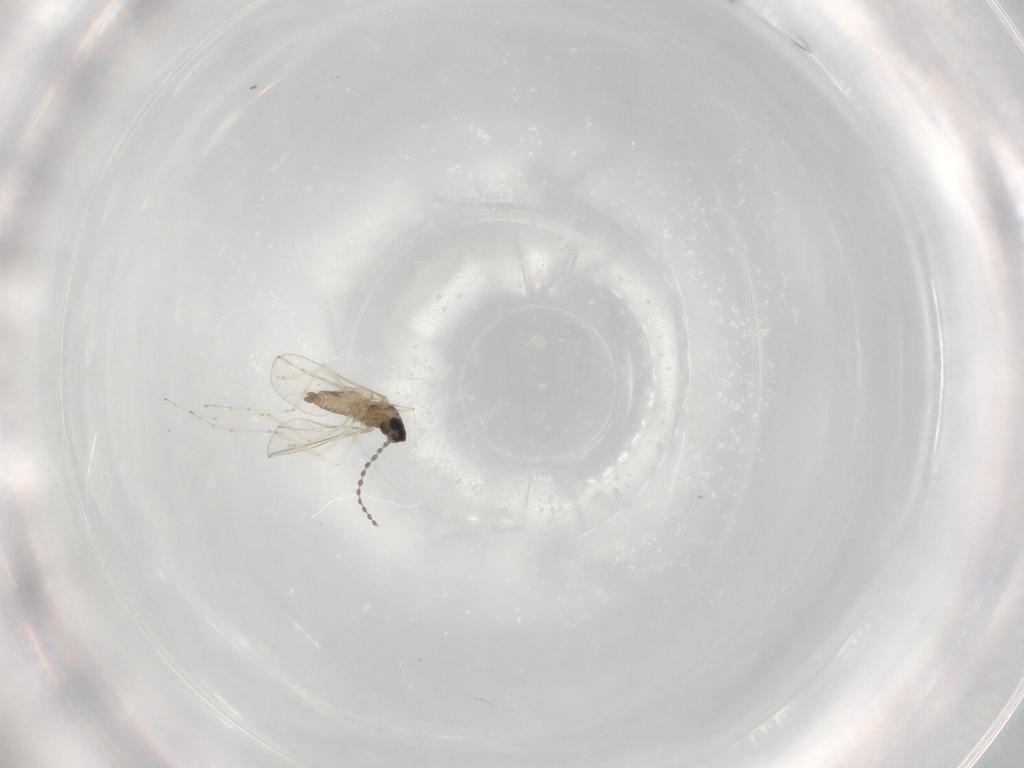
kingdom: Animalia
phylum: Arthropoda
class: Insecta
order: Diptera
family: Cecidomyiidae
